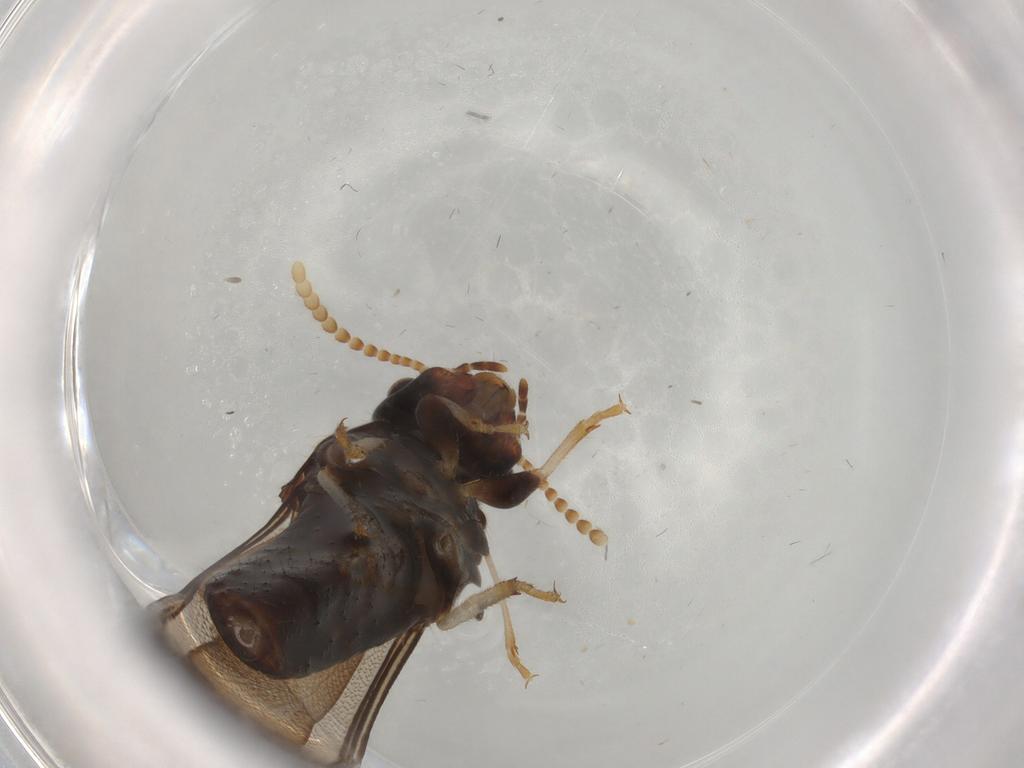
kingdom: Animalia
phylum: Arthropoda
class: Insecta
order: Blattodea
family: Kalotermitidae
